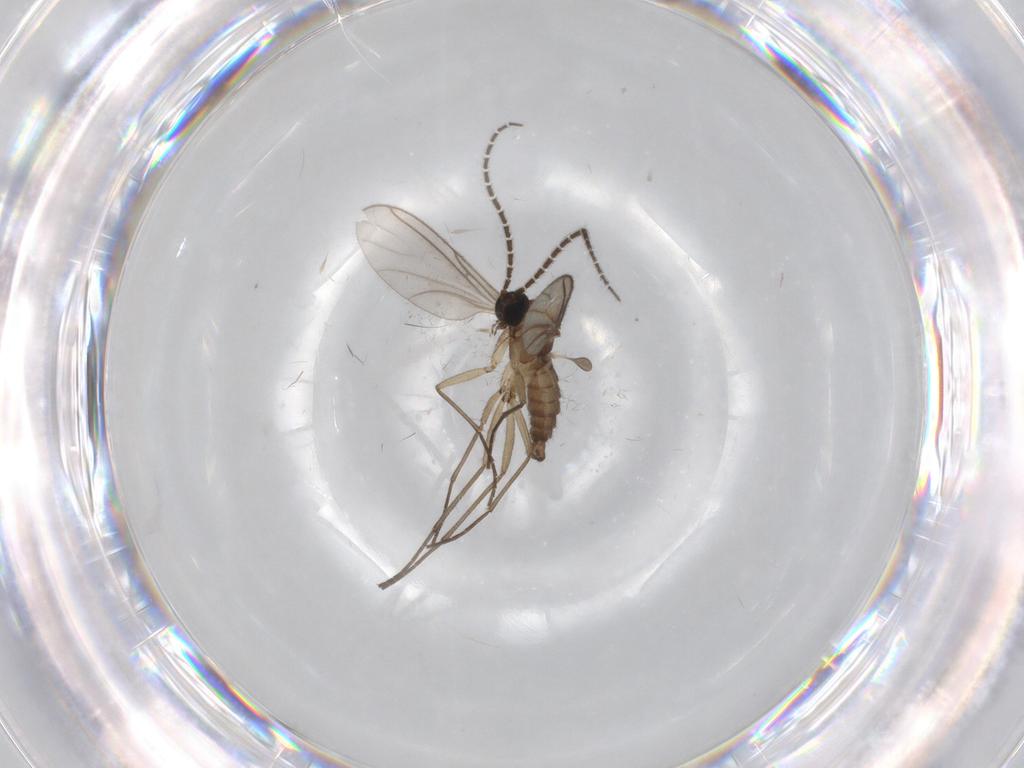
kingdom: Animalia
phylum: Arthropoda
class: Insecta
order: Diptera
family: Sciaridae
